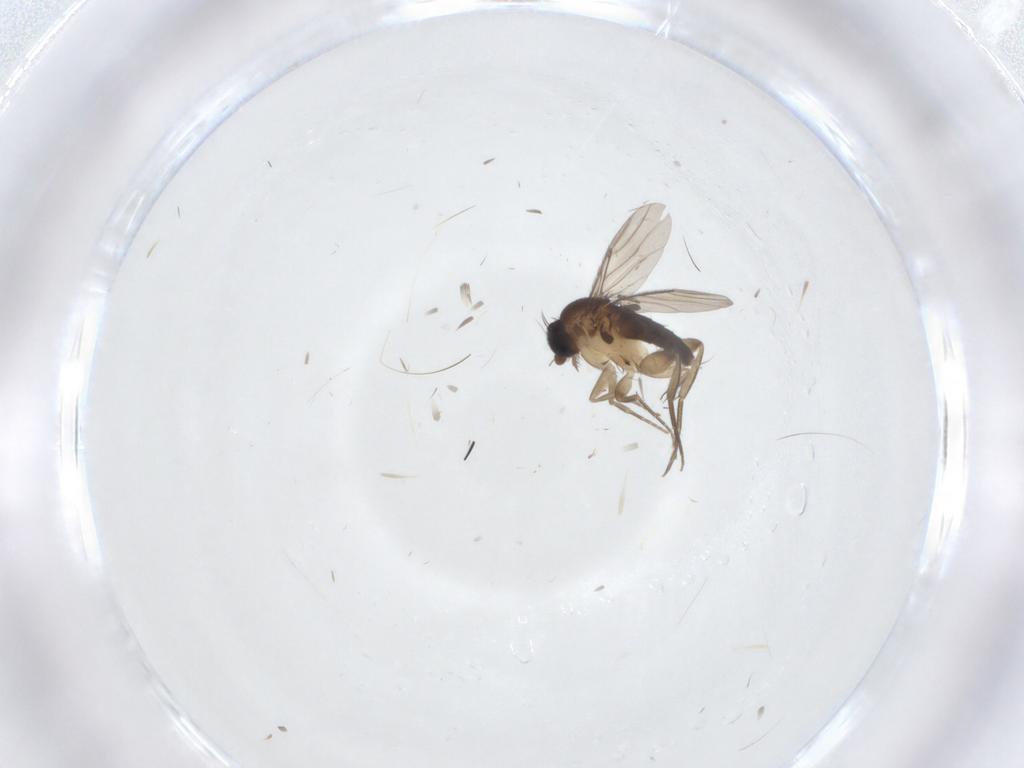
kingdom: Animalia
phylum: Arthropoda
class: Insecta
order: Diptera
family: Phoridae
